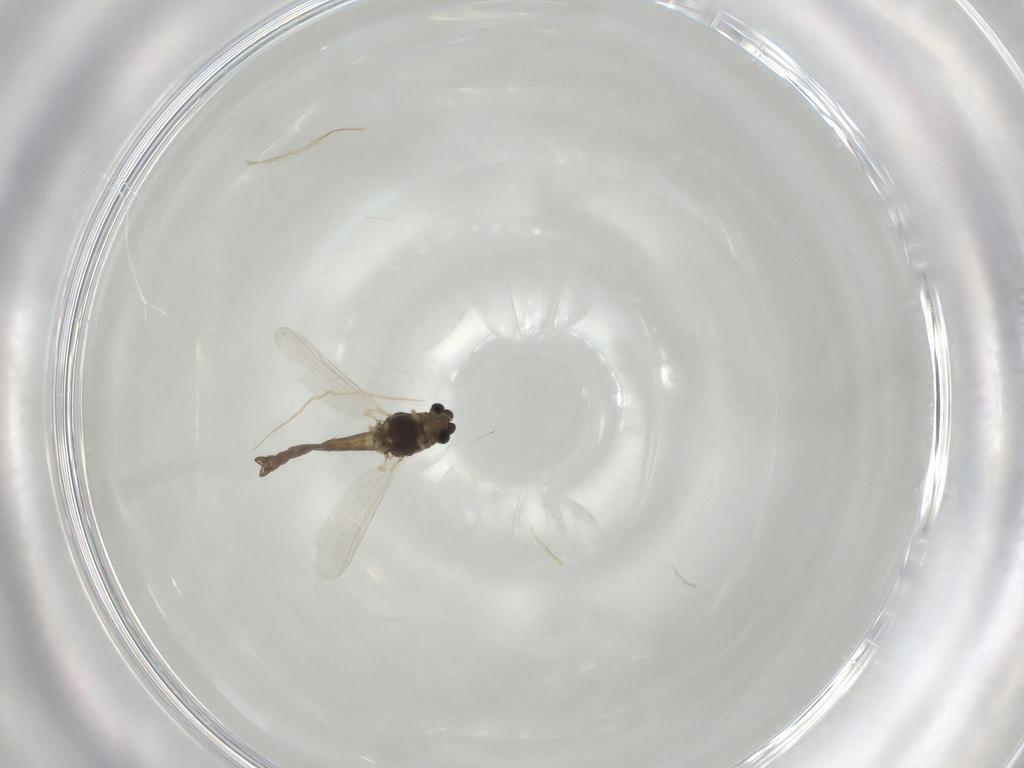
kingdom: Animalia
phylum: Arthropoda
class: Insecta
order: Diptera
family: Chironomidae
